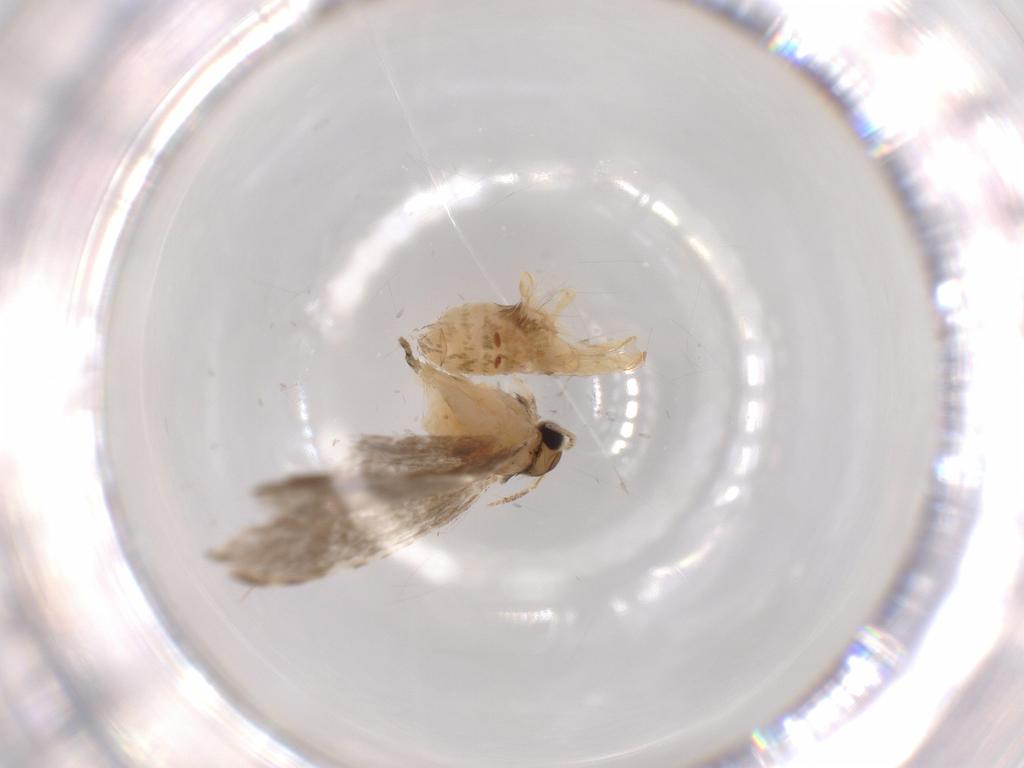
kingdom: Animalia
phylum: Arthropoda
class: Insecta
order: Lepidoptera
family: Tineidae
